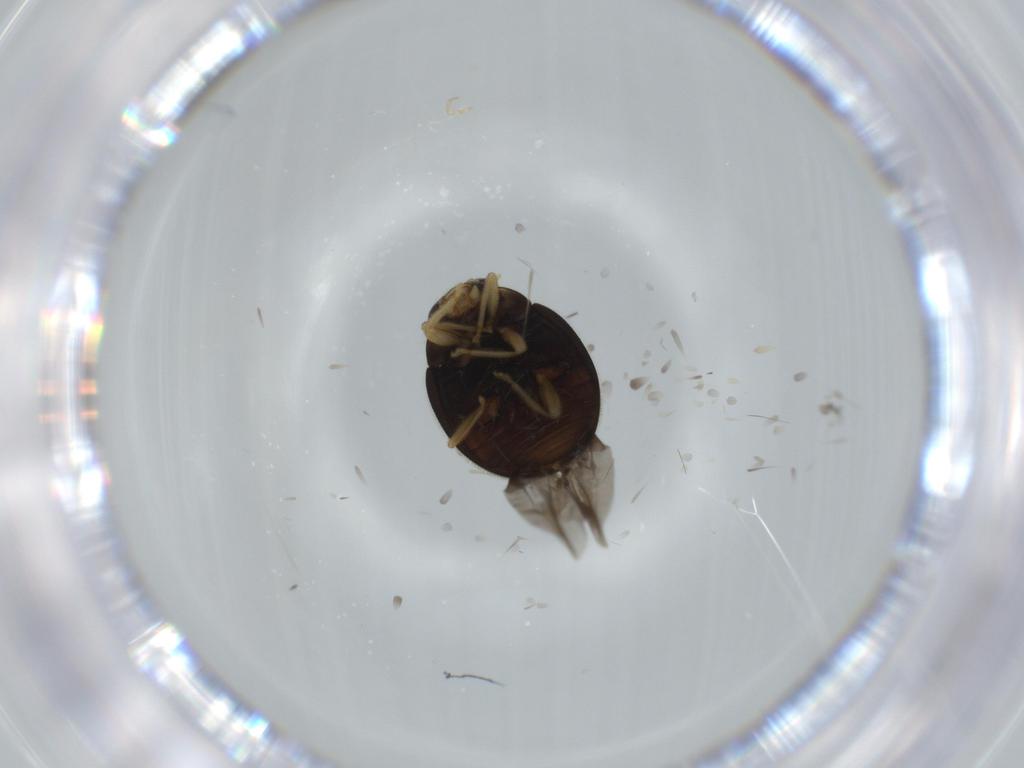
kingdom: Animalia
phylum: Arthropoda
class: Insecta
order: Coleoptera
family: Coccinellidae
